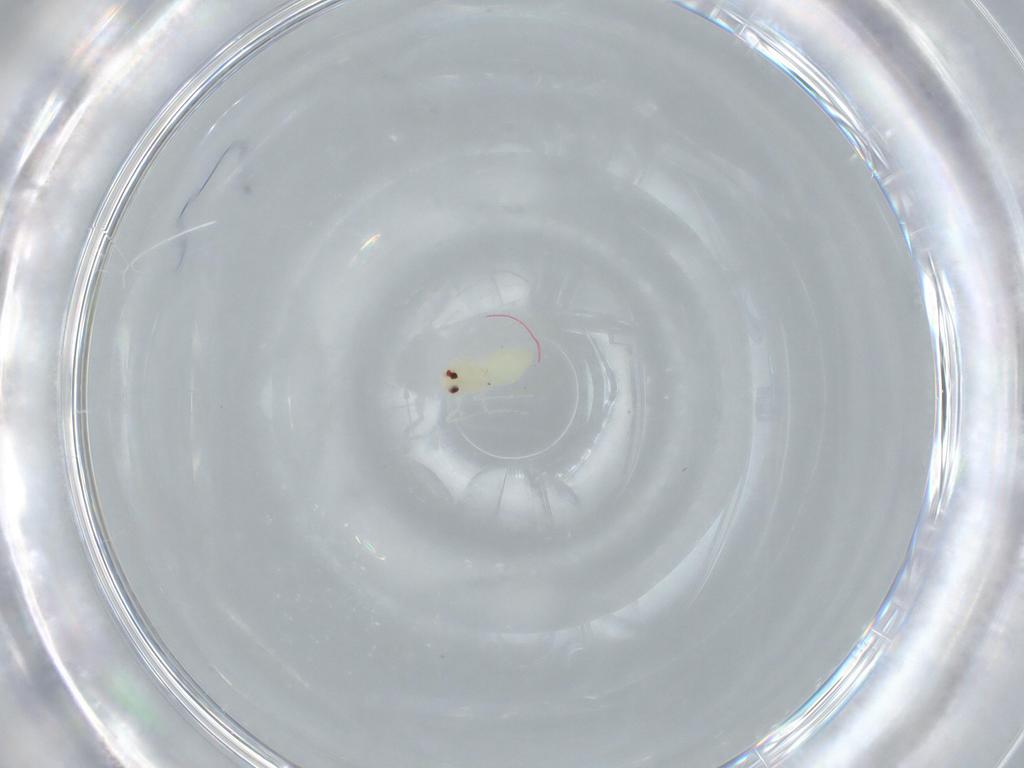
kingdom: Animalia
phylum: Arthropoda
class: Insecta
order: Hemiptera
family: Aleyrodidae
